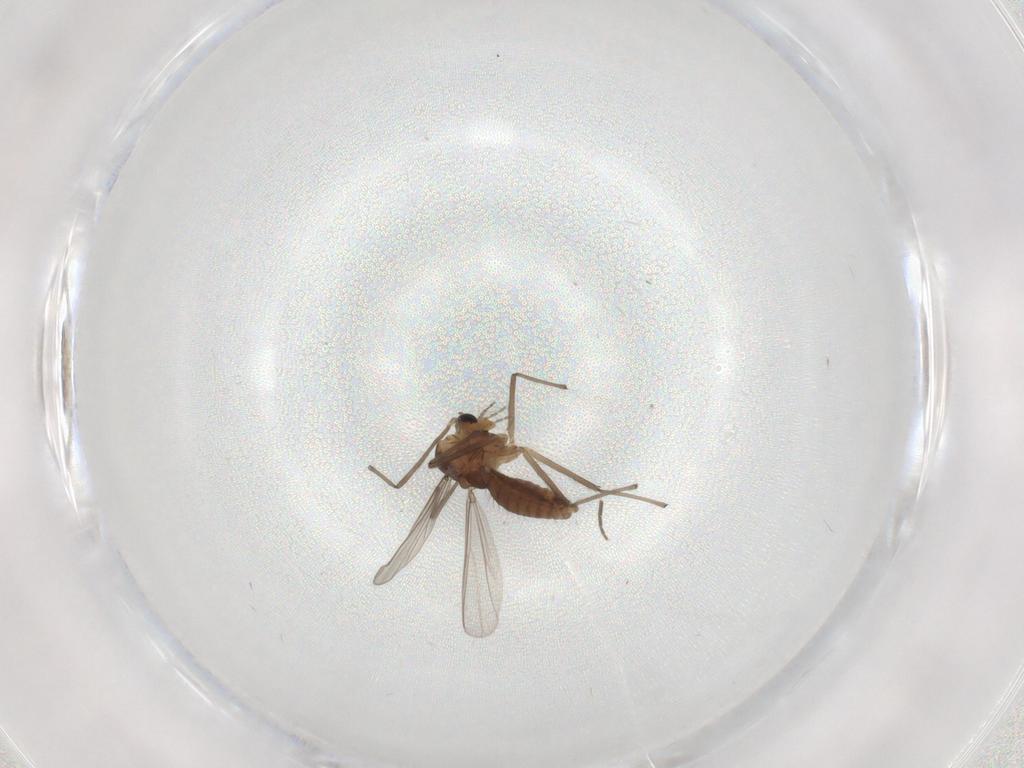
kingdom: Animalia
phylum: Arthropoda
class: Insecta
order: Diptera
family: Chironomidae
